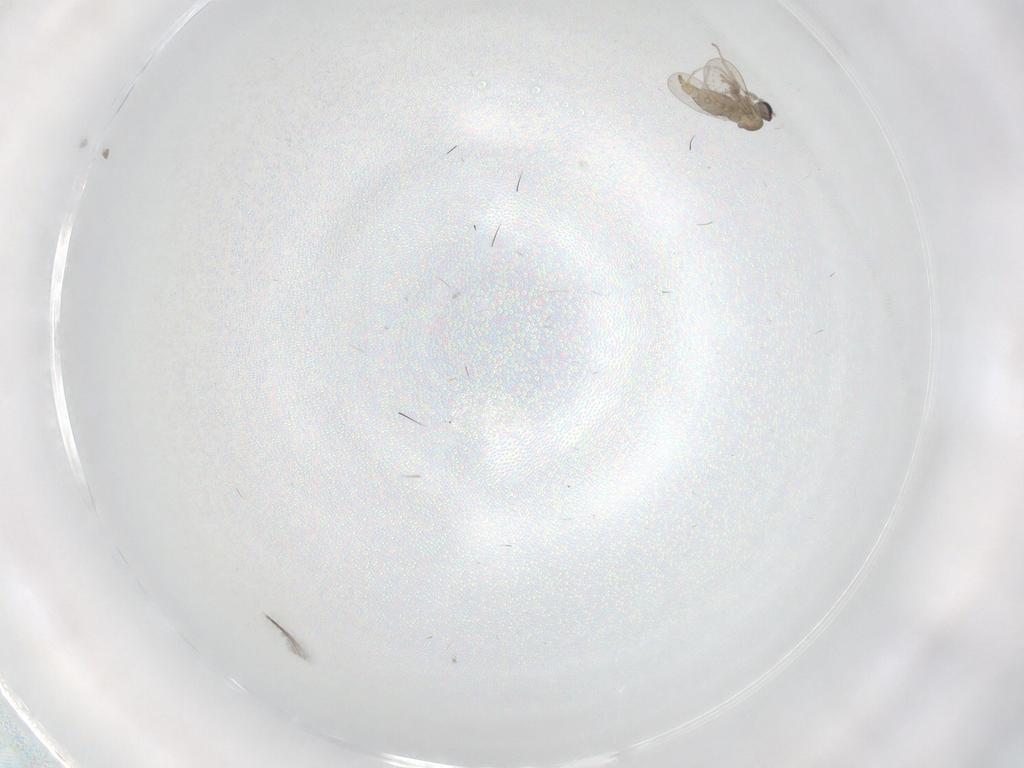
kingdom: Animalia
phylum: Arthropoda
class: Insecta
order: Diptera
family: Cecidomyiidae
